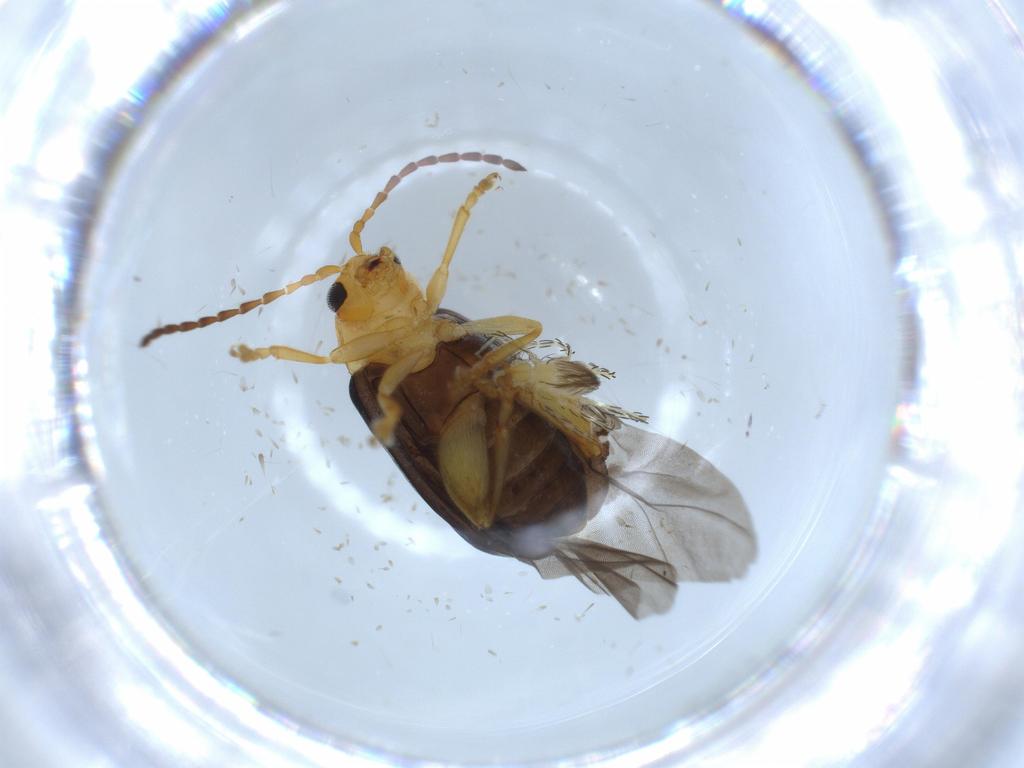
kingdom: Animalia
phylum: Arthropoda
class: Insecta
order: Coleoptera
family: Chrysomelidae
